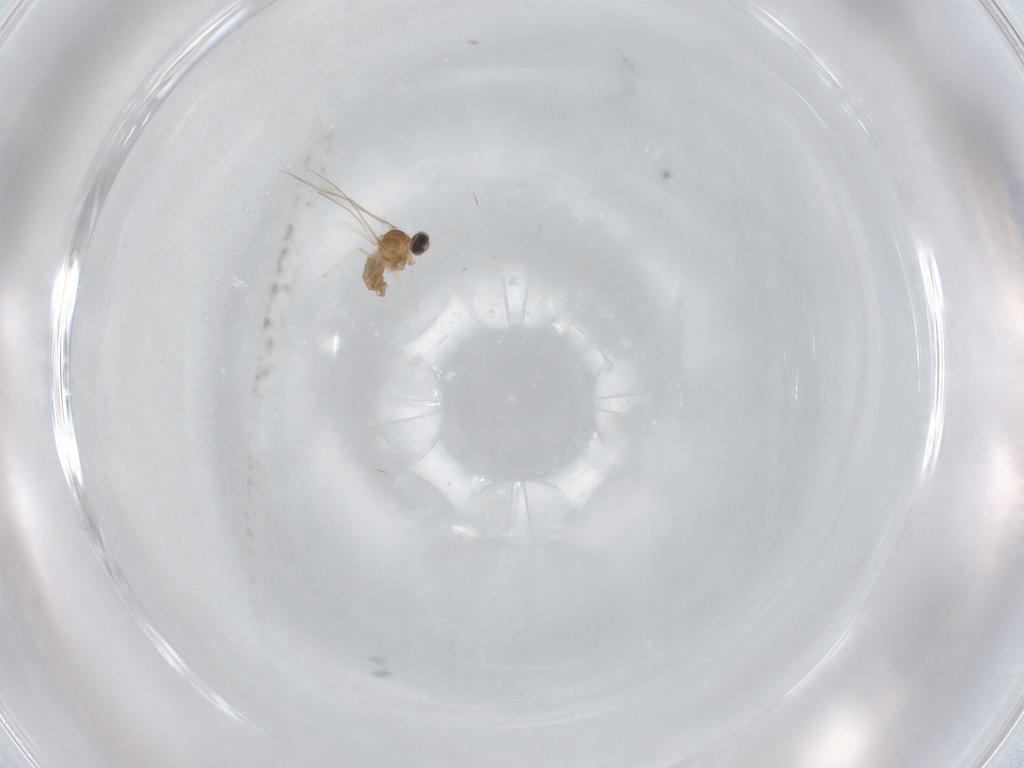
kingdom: Animalia
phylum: Arthropoda
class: Insecta
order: Diptera
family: Cecidomyiidae
